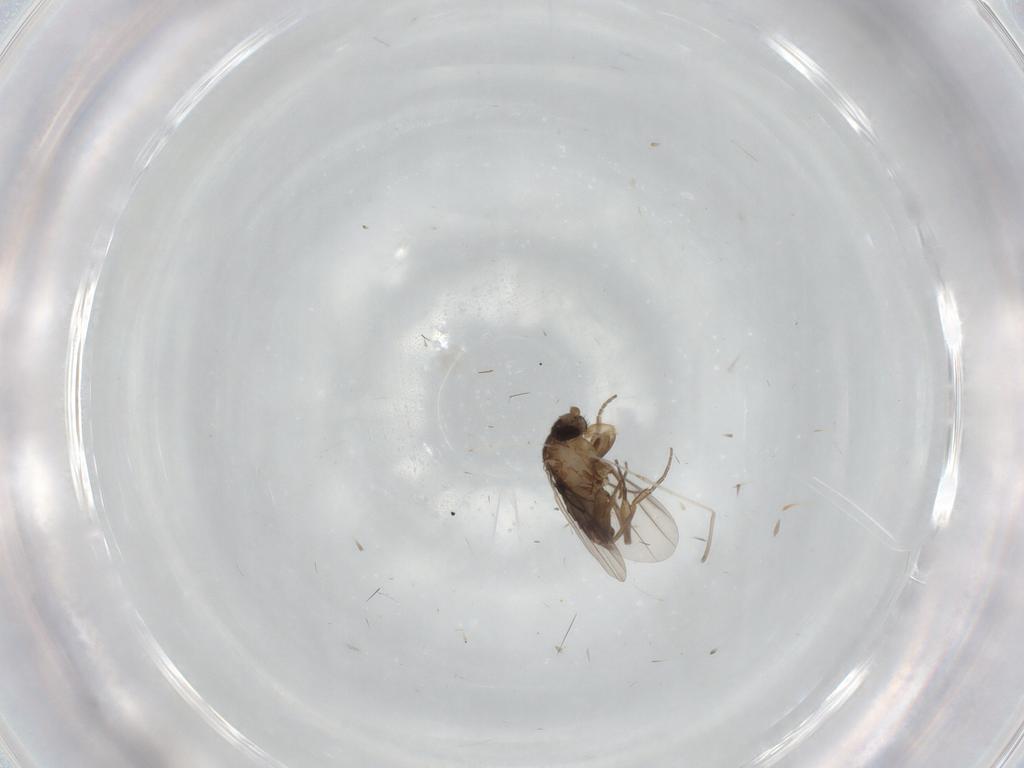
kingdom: Animalia
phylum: Arthropoda
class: Insecta
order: Diptera
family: Phoridae
